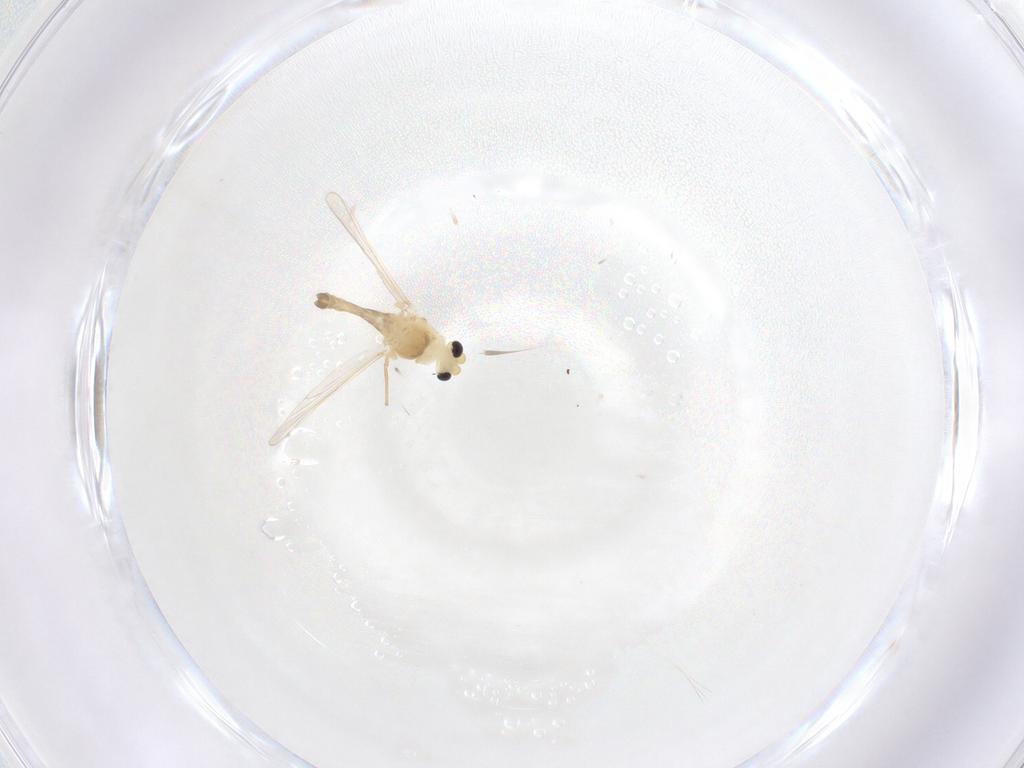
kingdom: Animalia
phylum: Arthropoda
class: Insecta
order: Diptera
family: Chironomidae
